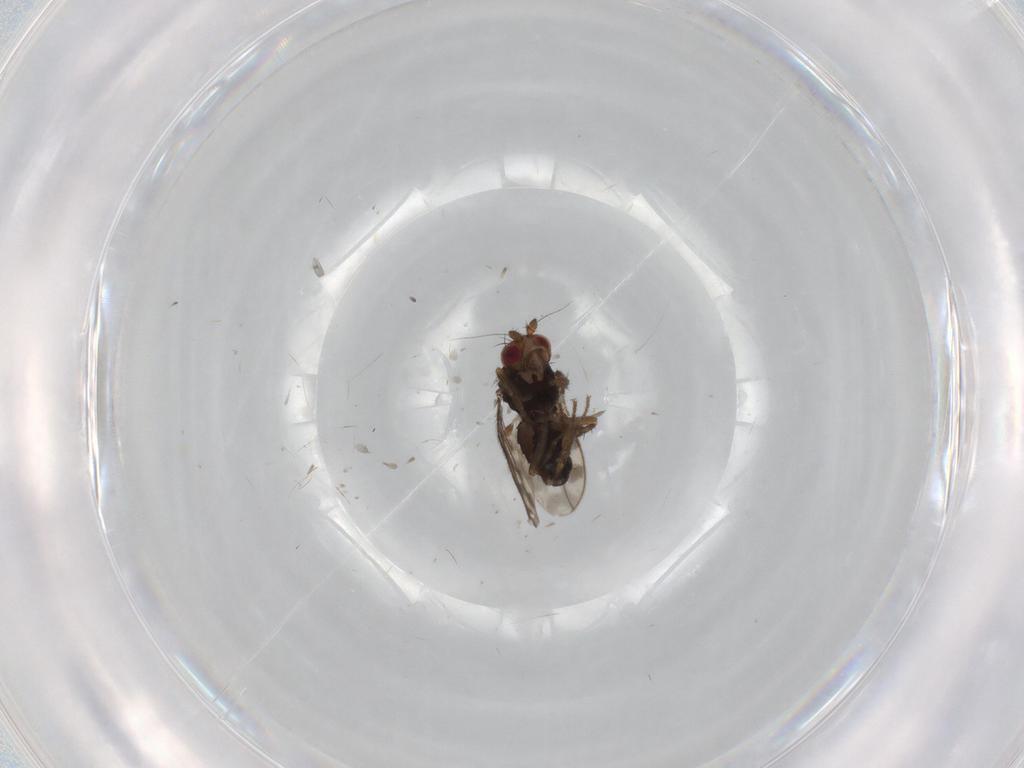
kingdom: Animalia
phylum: Arthropoda
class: Insecta
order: Diptera
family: Sphaeroceridae
